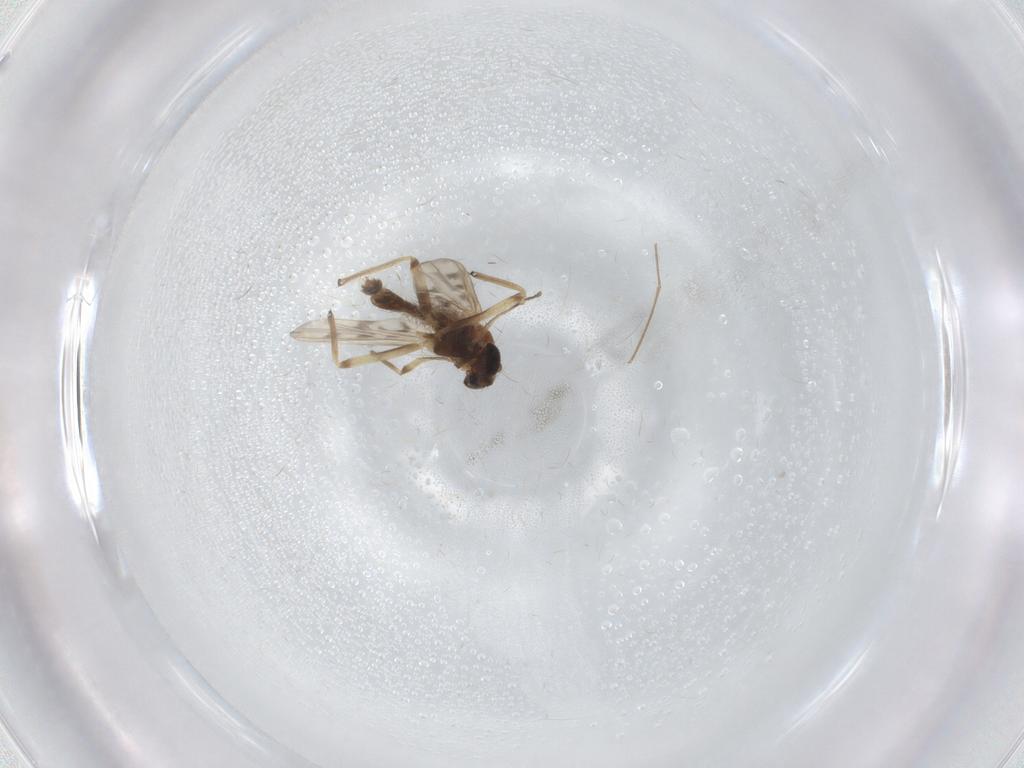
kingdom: Animalia
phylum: Arthropoda
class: Insecta
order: Diptera
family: Chironomidae
